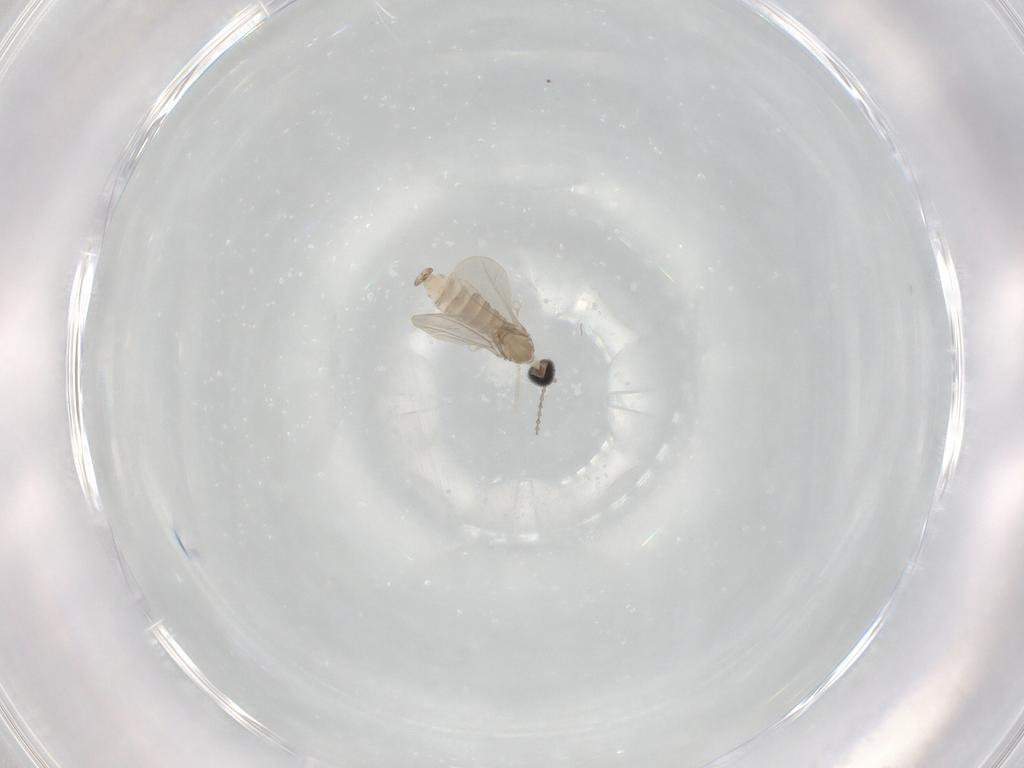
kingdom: Animalia
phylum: Arthropoda
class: Insecta
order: Diptera
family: Cecidomyiidae
